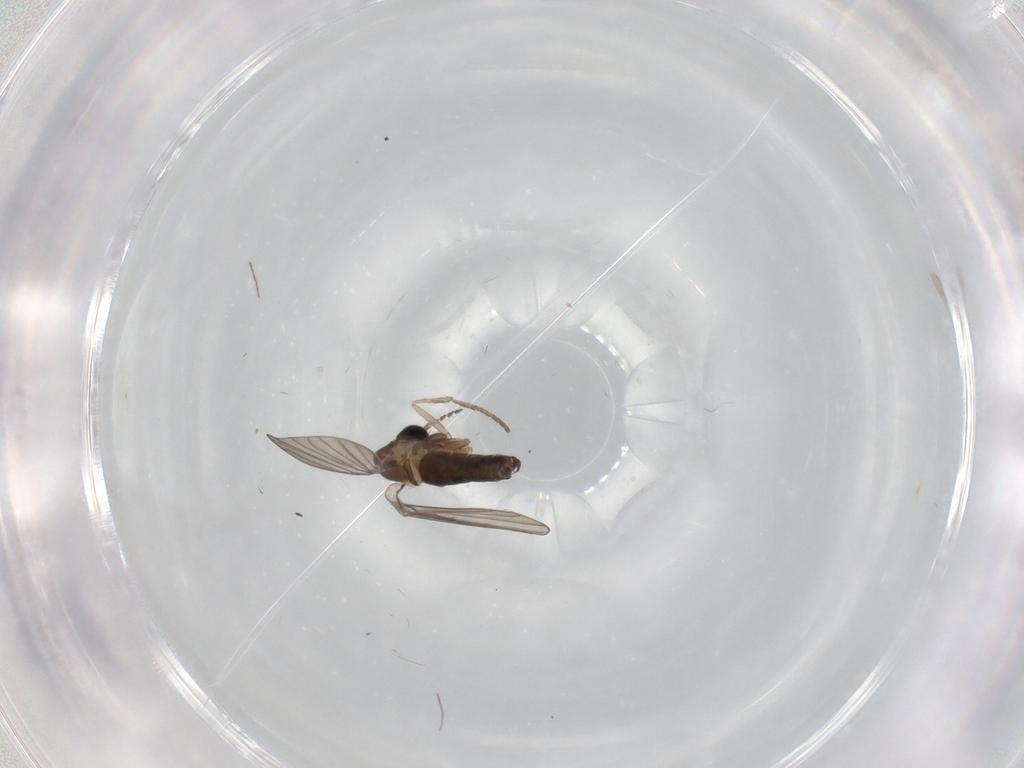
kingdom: Animalia
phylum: Arthropoda
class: Insecta
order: Diptera
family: Psychodidae
